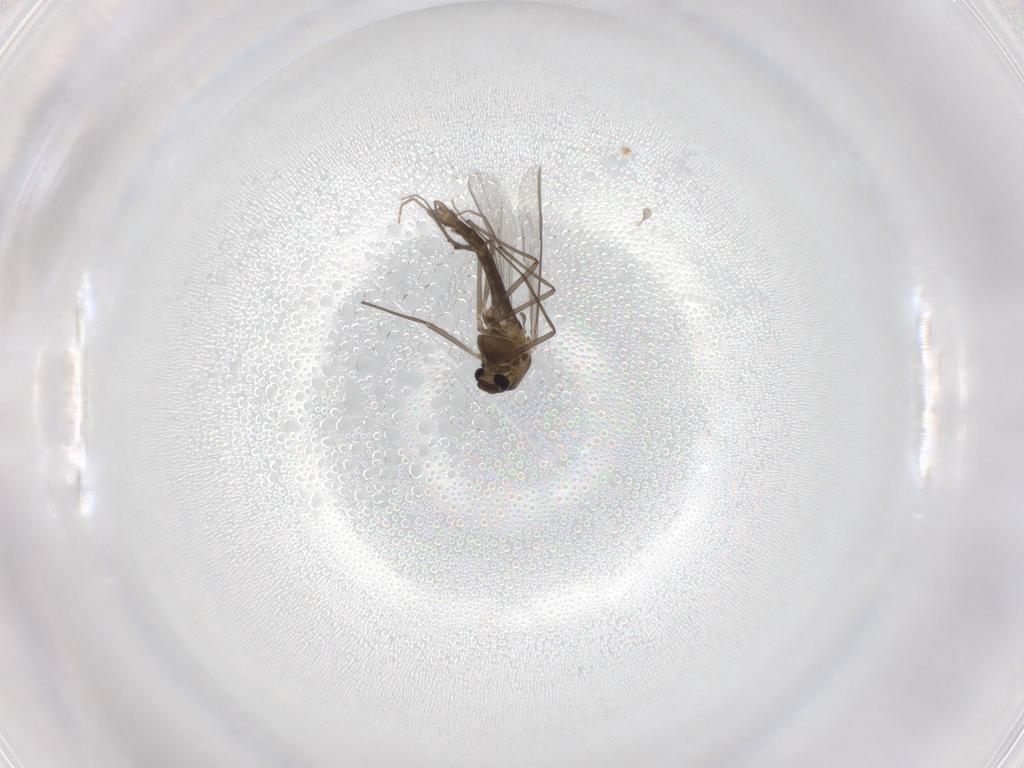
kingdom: Animalia
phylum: Arthropoda
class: Insecta
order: Diptera
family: Chironomidae
